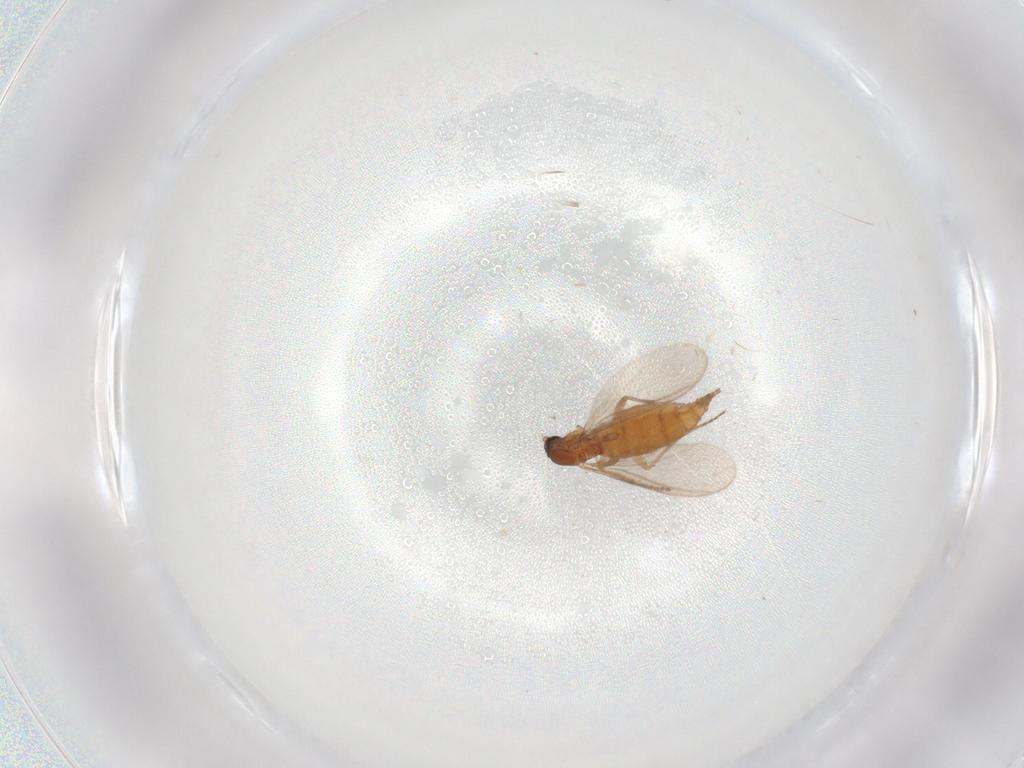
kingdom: Animalia
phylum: Arthropoda
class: Insecta
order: Diptera
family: Sciaridae
